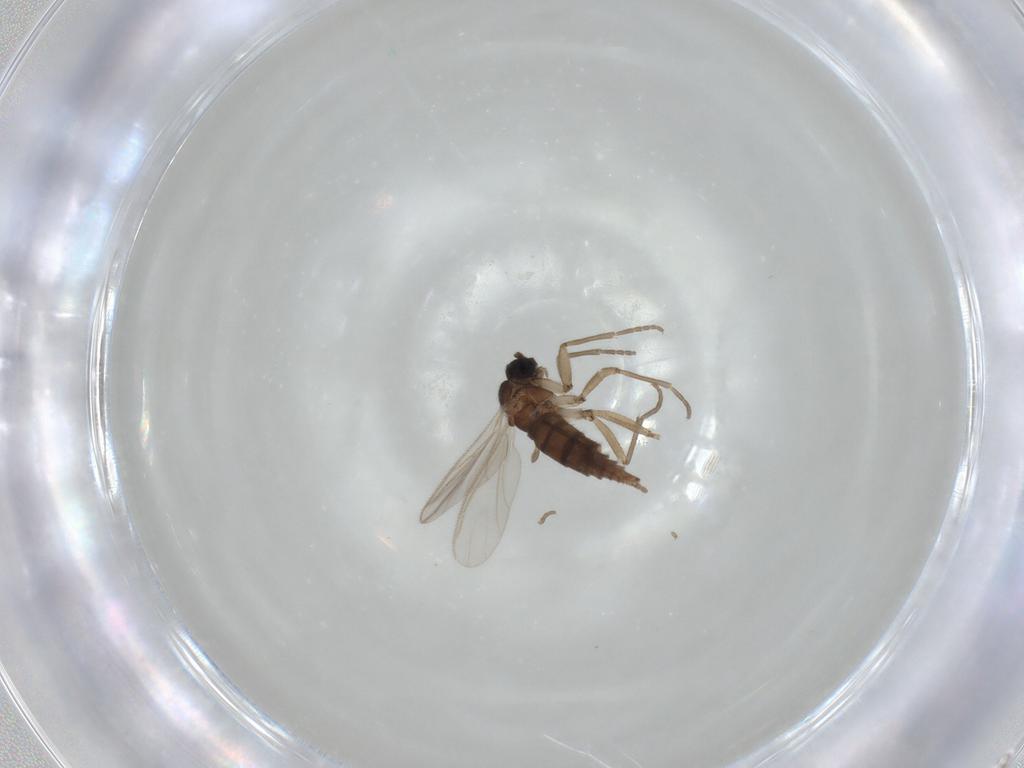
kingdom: Animalia
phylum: Arthropoda
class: Insecta
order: Diptera
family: Sciaridae
